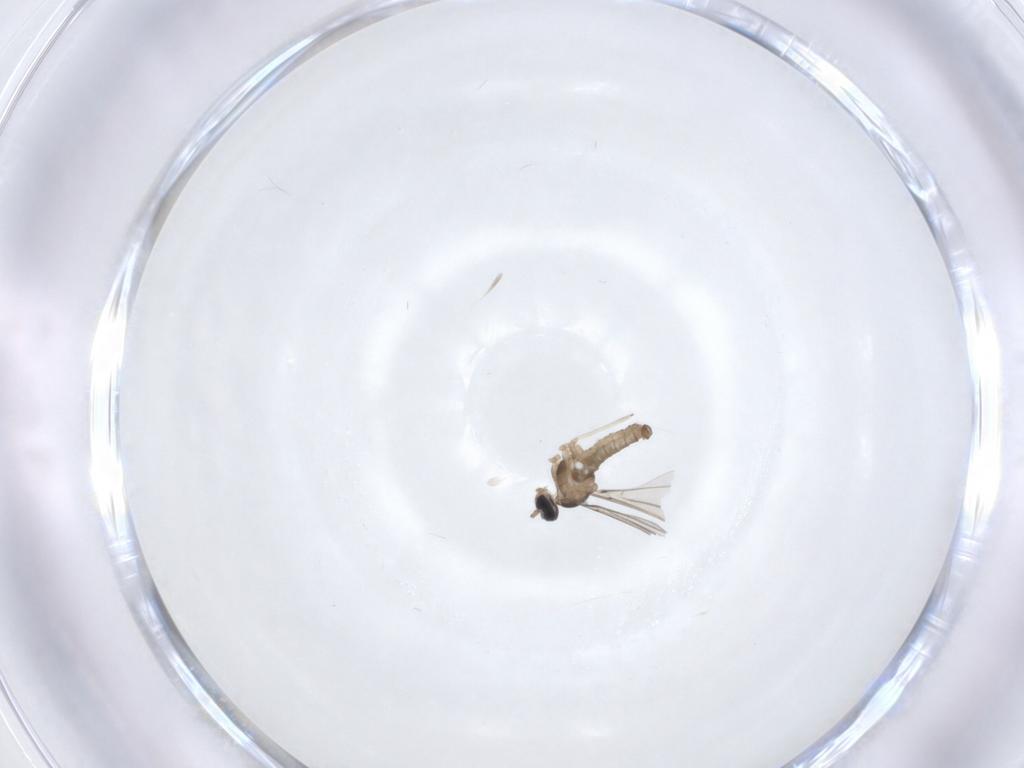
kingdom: Animalia
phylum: Arthropoda
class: Insecta
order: Diptera
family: Cecidomyiidae
